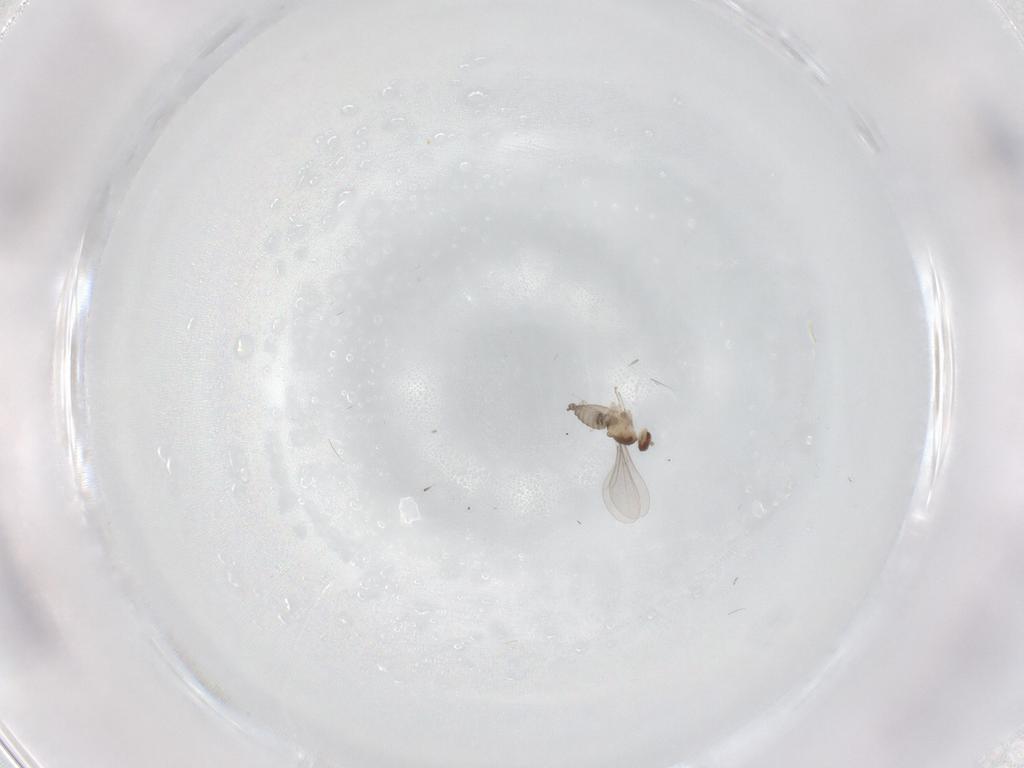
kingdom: Animalia
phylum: Arthropoda
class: Insecta
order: Diptera
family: Cecidomyiidae
